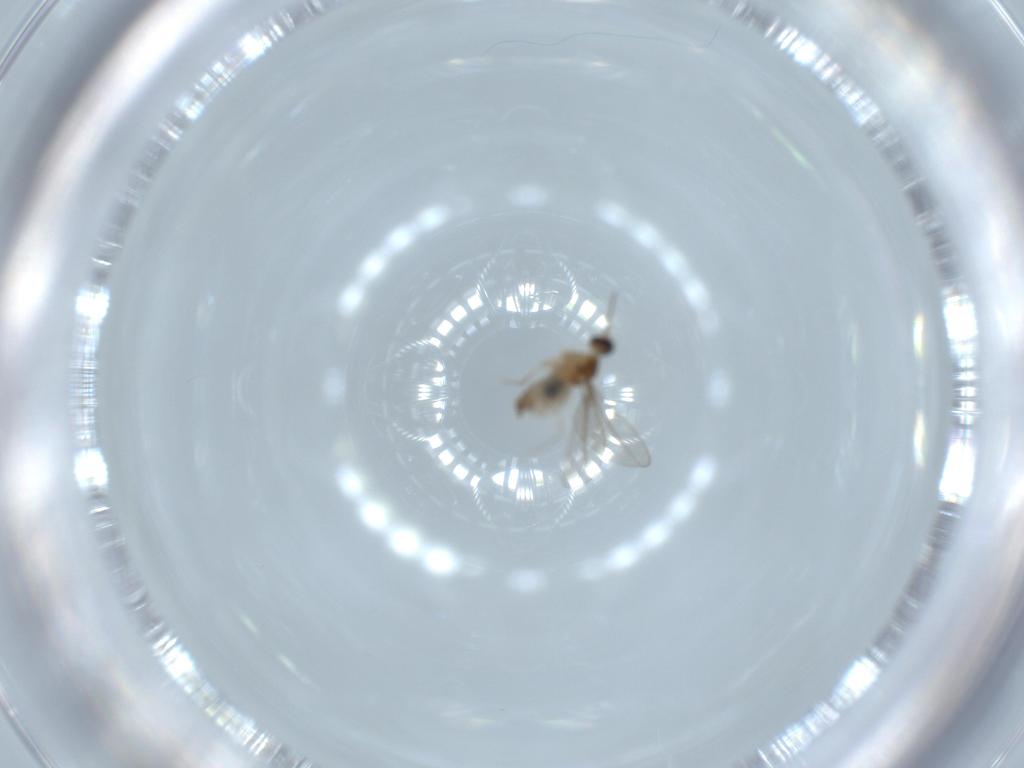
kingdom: Animalia
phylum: Arthropoda
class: Insecta
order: Diptera
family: Cecidomyiidae
